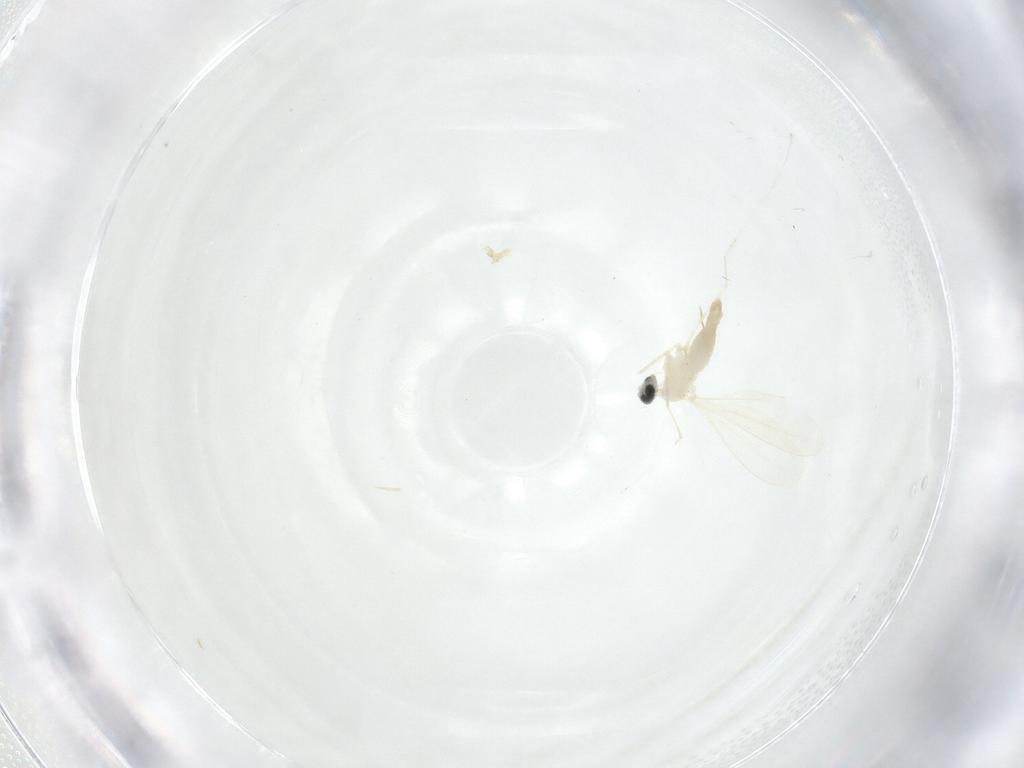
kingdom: Animalia
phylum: Arthropoda
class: Insecta
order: Diptera
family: Cecidomyiidae
